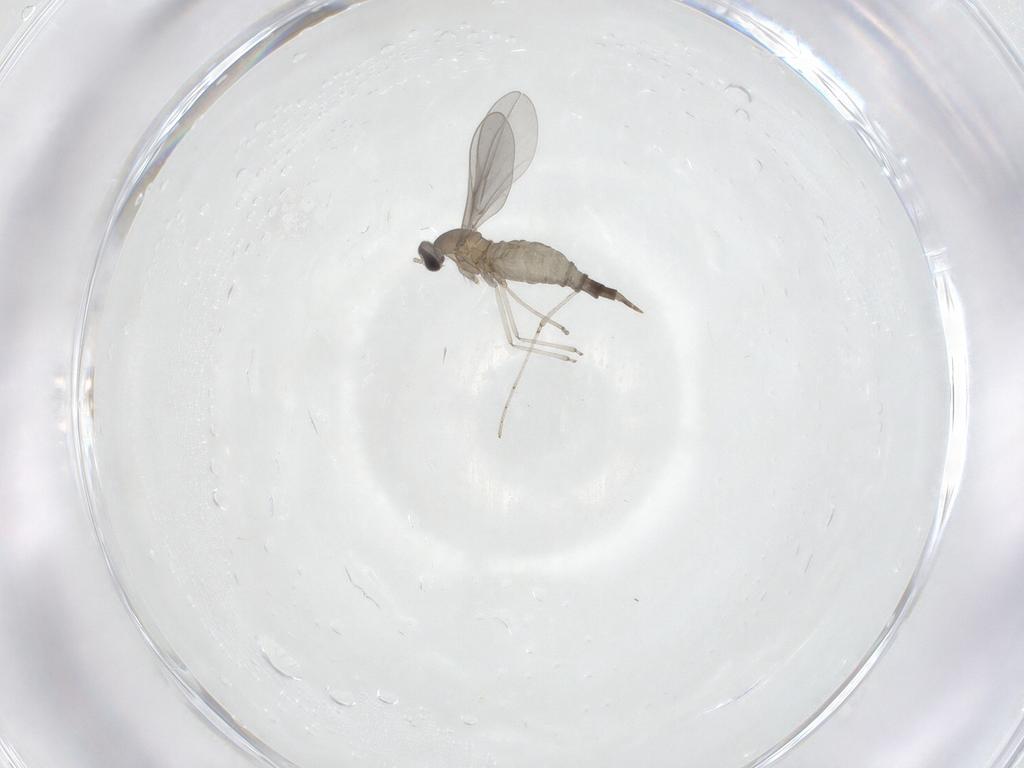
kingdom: Animalia
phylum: Arthropoda
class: Insecta
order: Diptera
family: Cecidomyiidae
